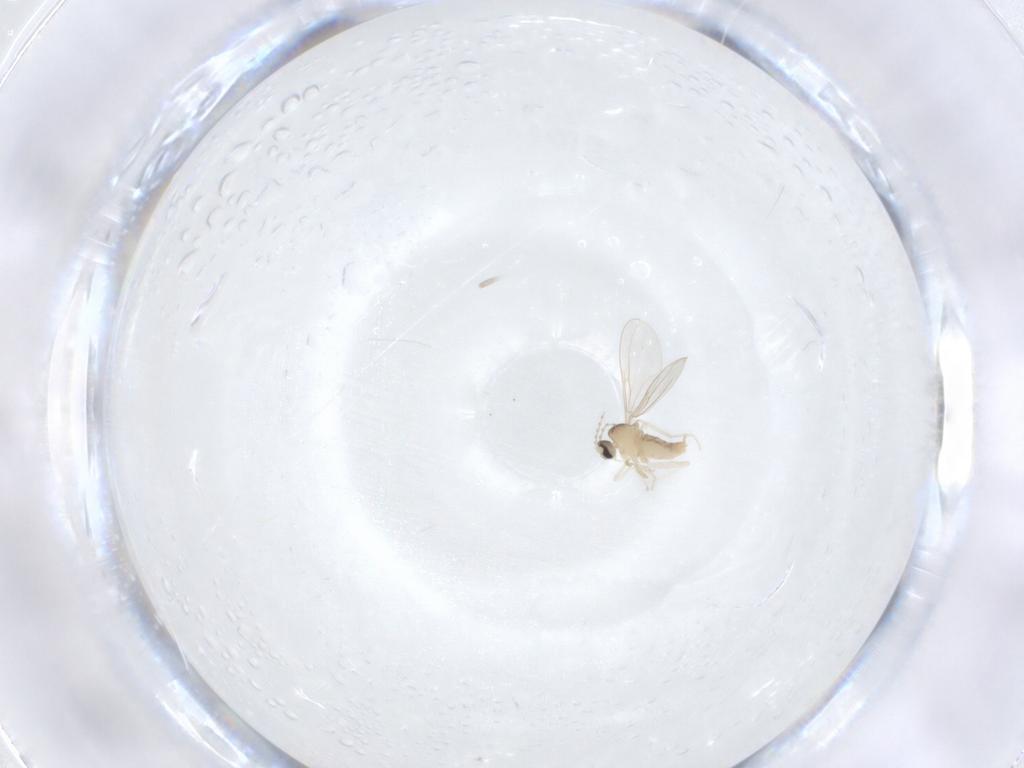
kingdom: Animalia
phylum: Arthropoda
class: Insecta
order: Diptera
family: Cecidomyiidae
